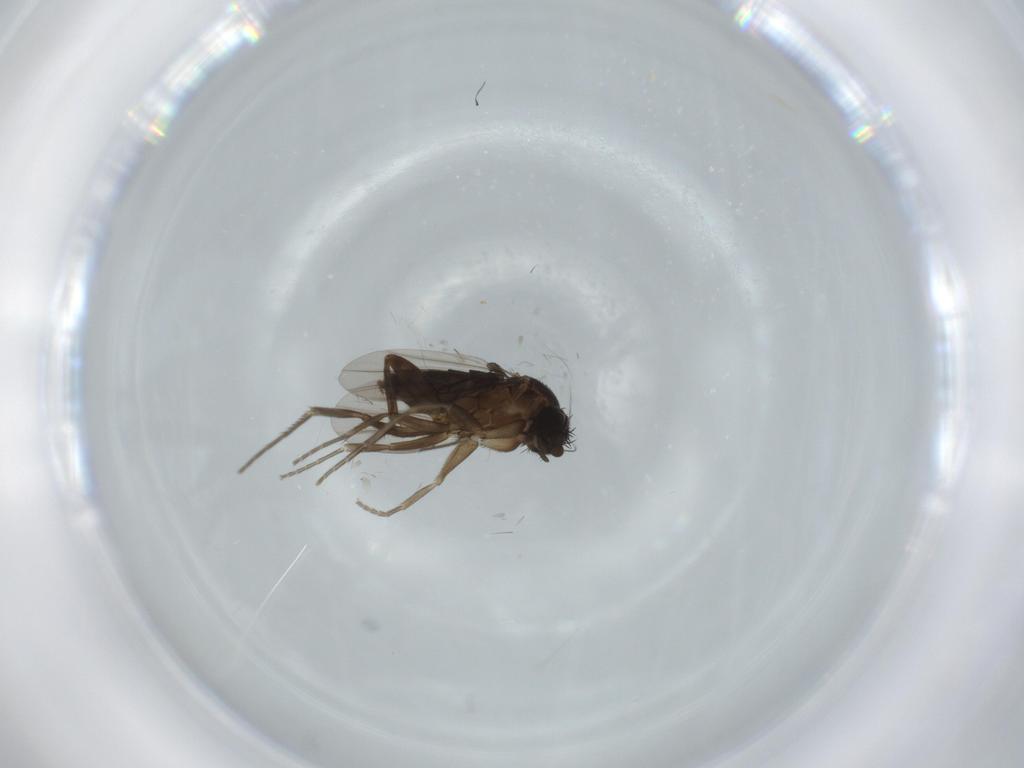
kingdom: Animalia
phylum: Arthropoda
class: Insecta
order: Diptera
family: Phoridae
